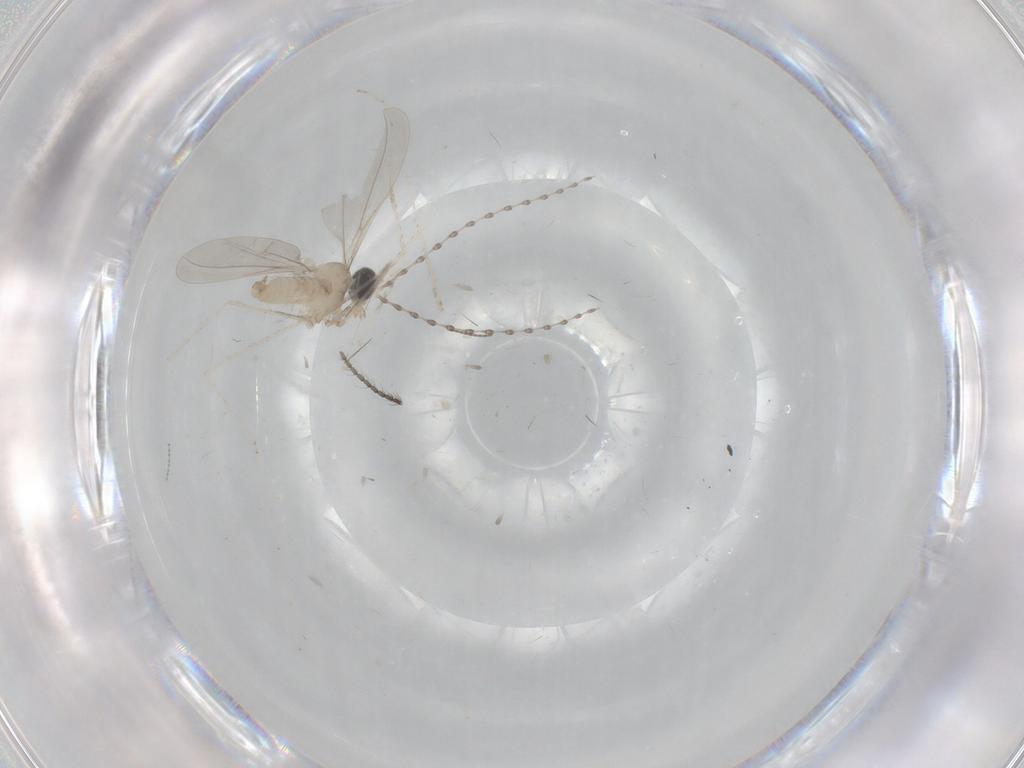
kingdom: Animalia
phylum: Arthropoda
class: Insecta
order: Diptera
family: Cecidomyiidae
